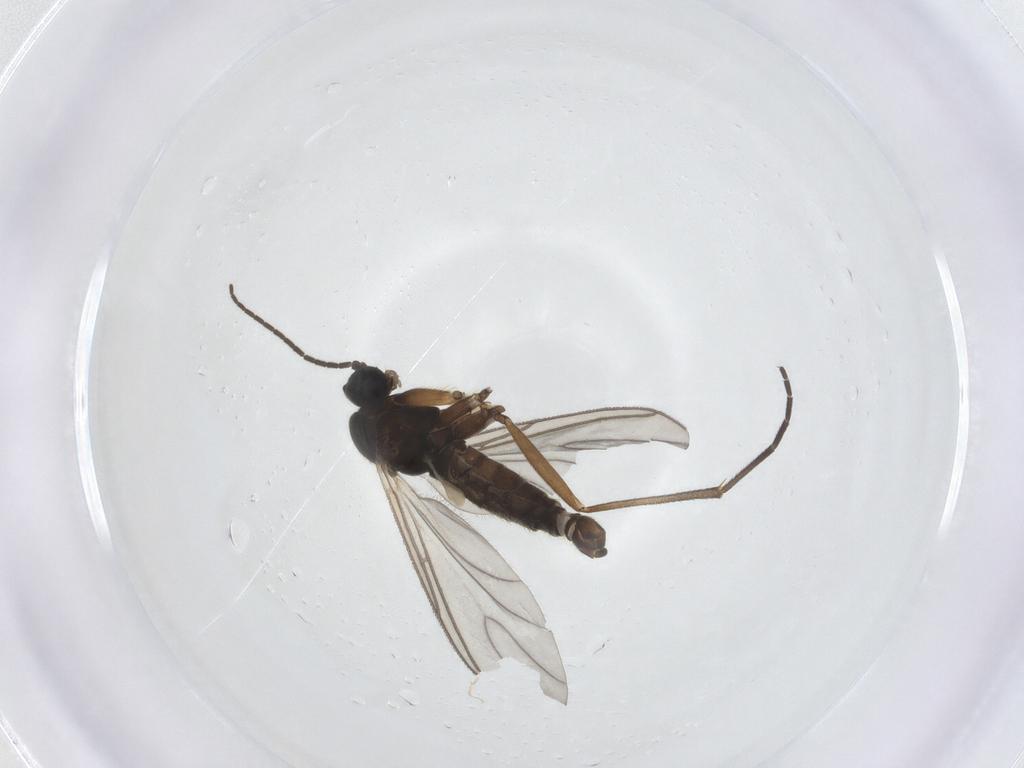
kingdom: Animalia
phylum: Arthropoda
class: Insecta
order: Diptera
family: Sciaridae
